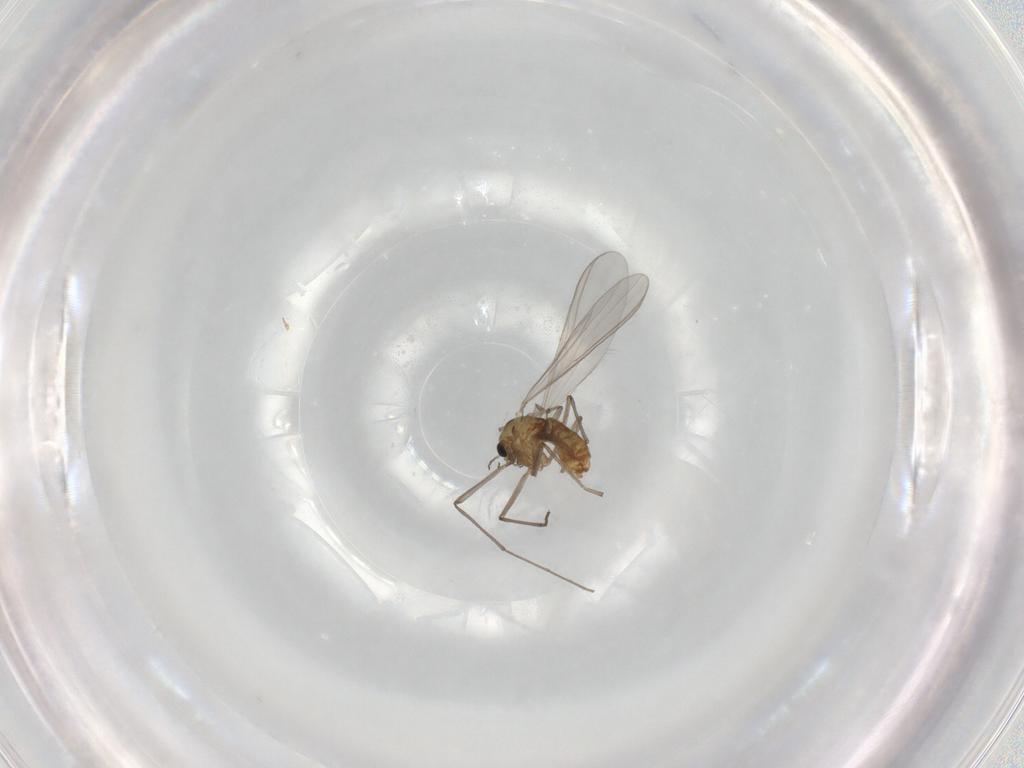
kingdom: Animalia
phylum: Arthropoda
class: Insecta
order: Diptera
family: Chironomidae
